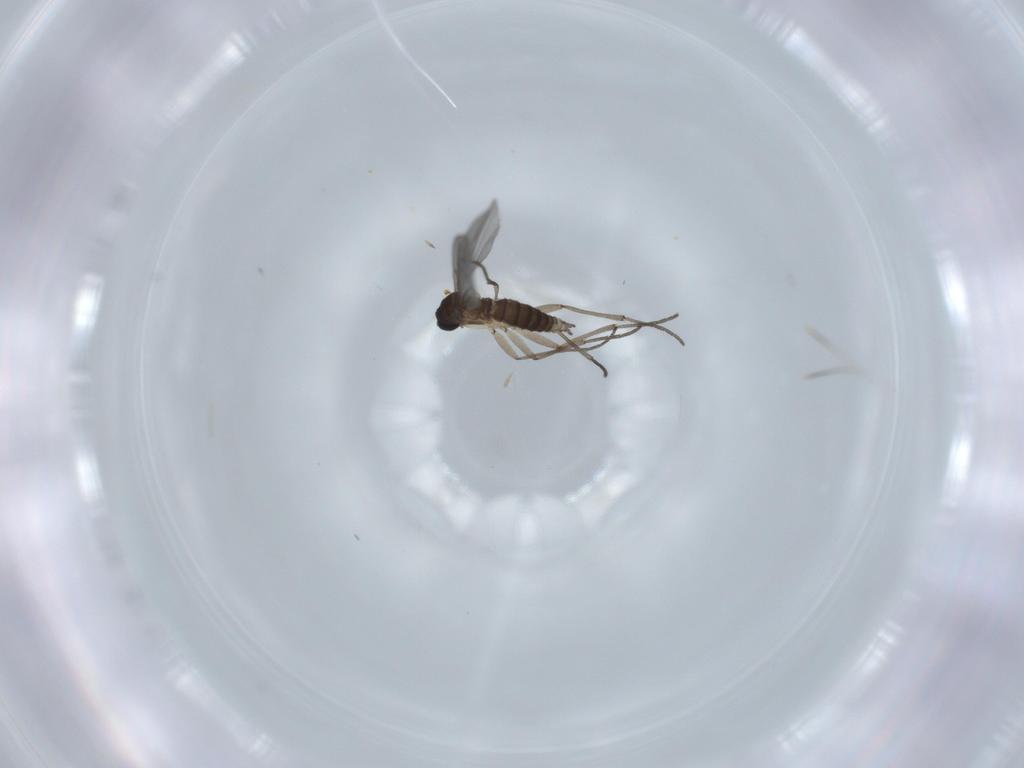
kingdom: Animalia
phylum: Arthropoda
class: Insecta
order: Diptera
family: Sciaridae
